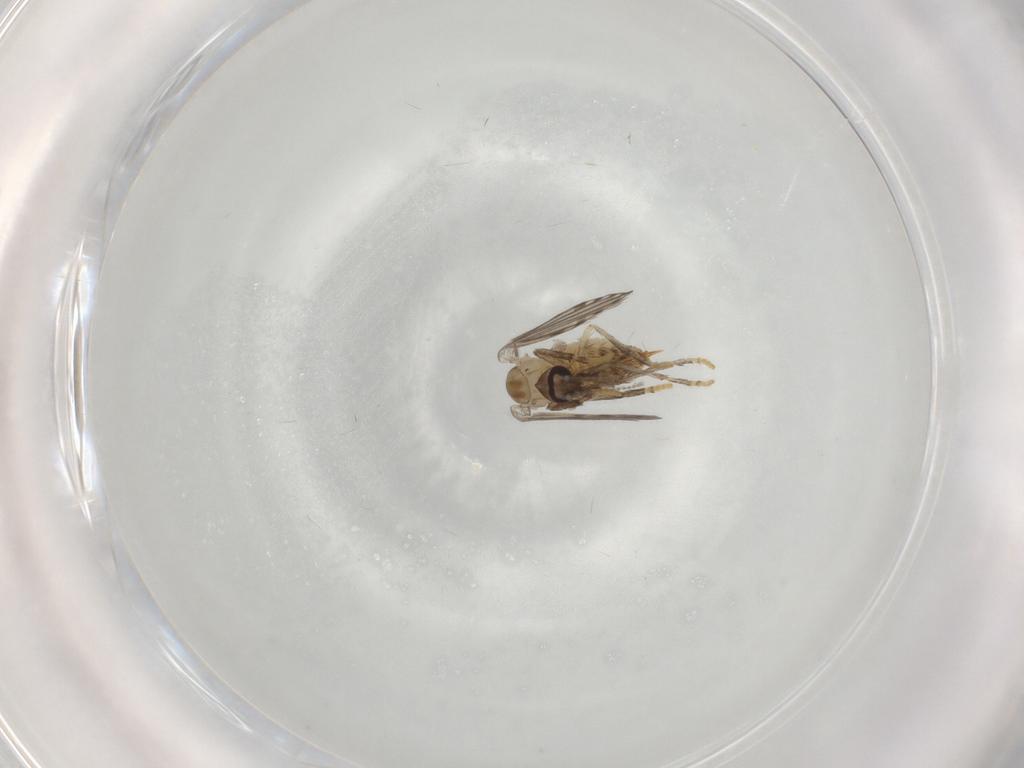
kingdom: Animalia
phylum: Arthropoda
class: Insecta
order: Diptera
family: Psychodidae
